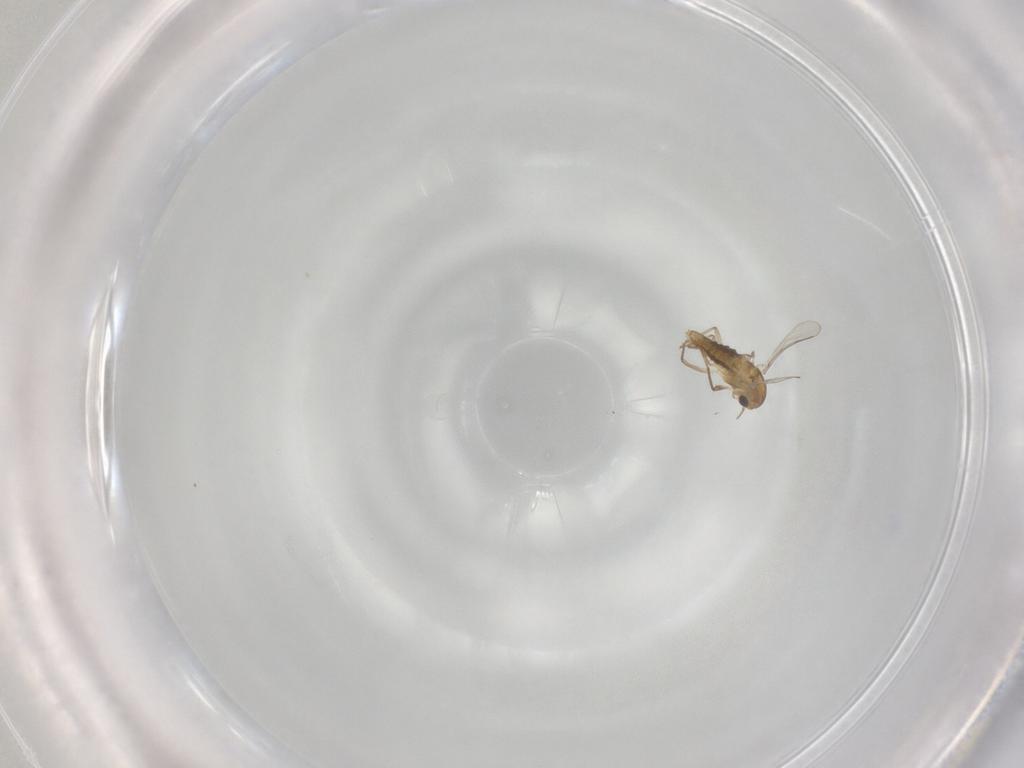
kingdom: Animalia
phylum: Arthropoda
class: Insecta
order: Diptera
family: Chironomidae
